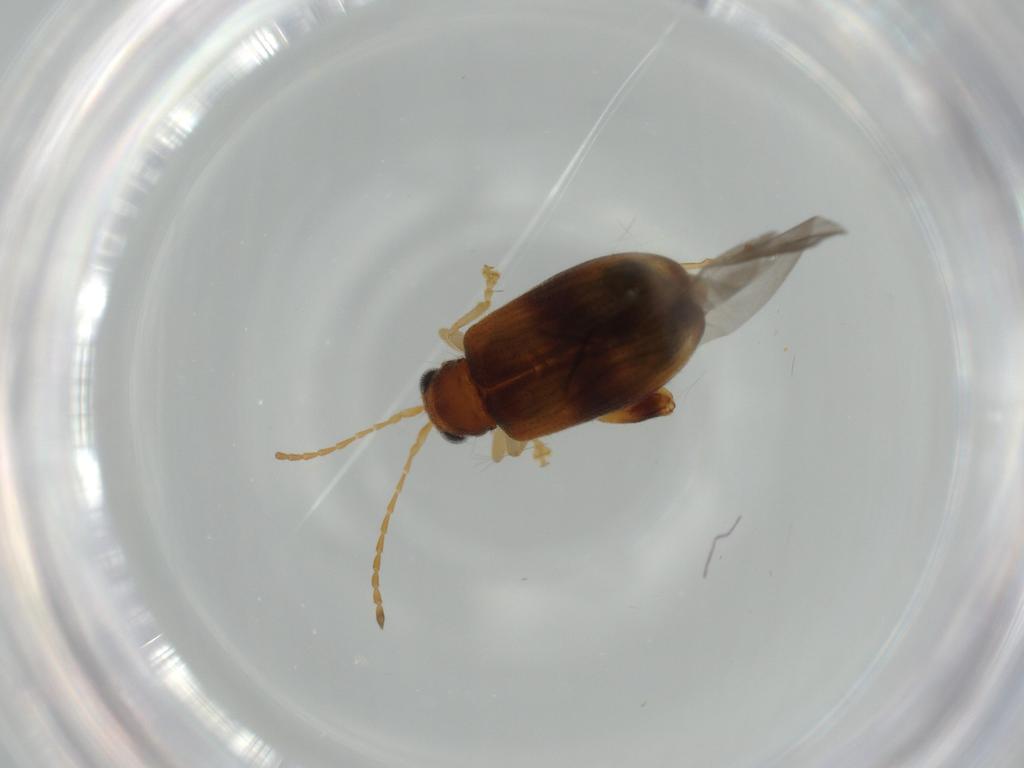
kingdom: Animalia
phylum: Arthropoda
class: Insecta
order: Coleoptera
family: Chrysomelidae
